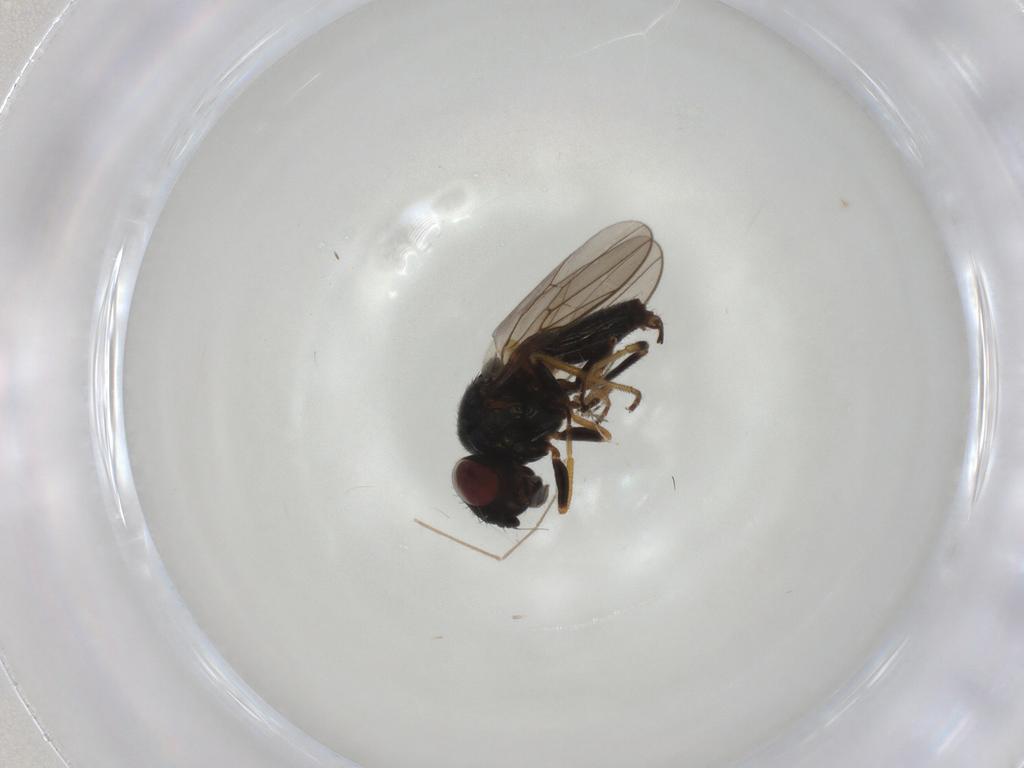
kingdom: Animalia
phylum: Arthropoda
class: Insecta
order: Diptera
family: Chloropidae
